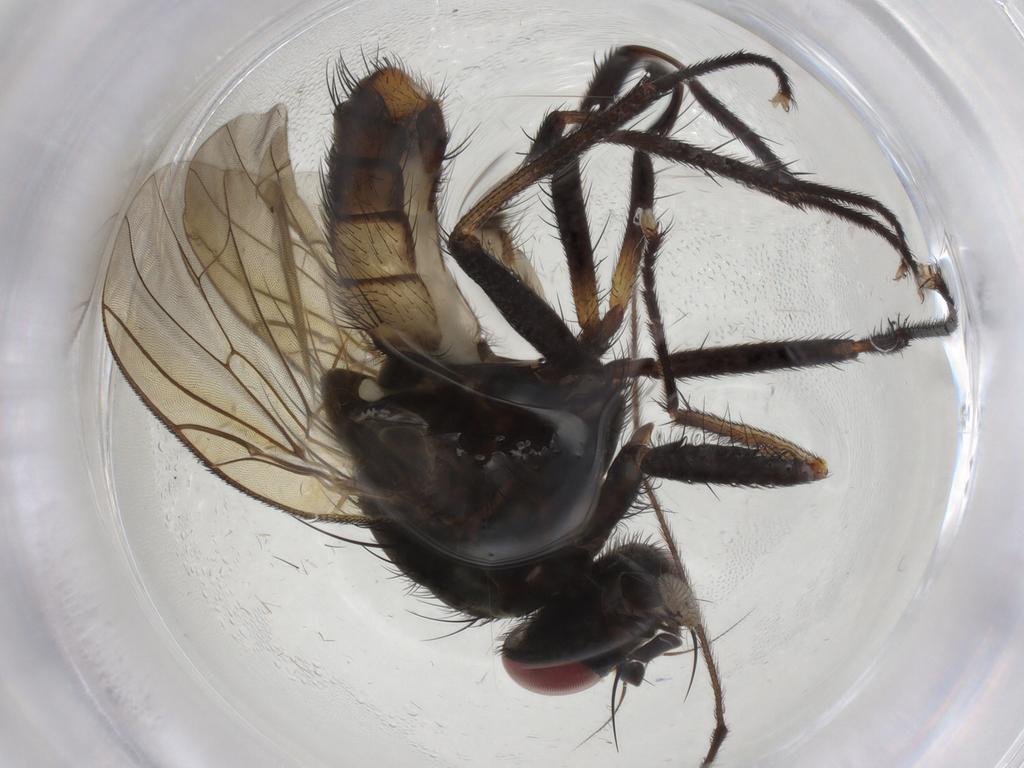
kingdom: Animalia
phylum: Arthropoda
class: Insecta
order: Diptera
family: Anthomyiidae
